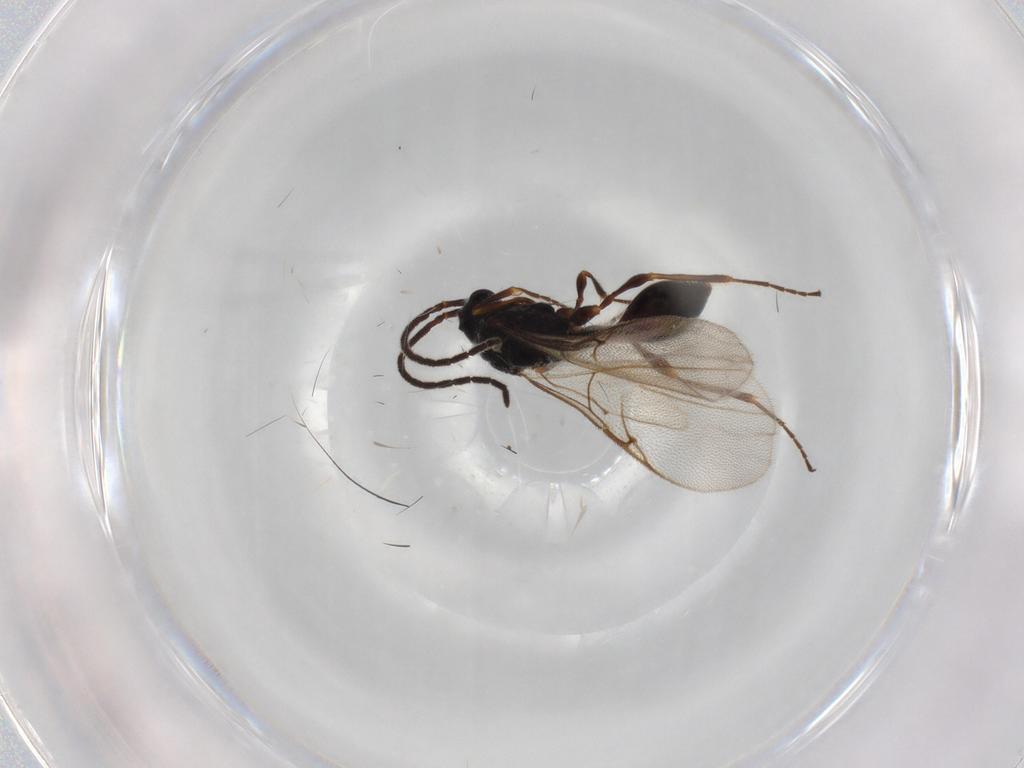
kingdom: Animalia
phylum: Arthropoda
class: Insecta
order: Hymenoptera
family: Diapriidae
